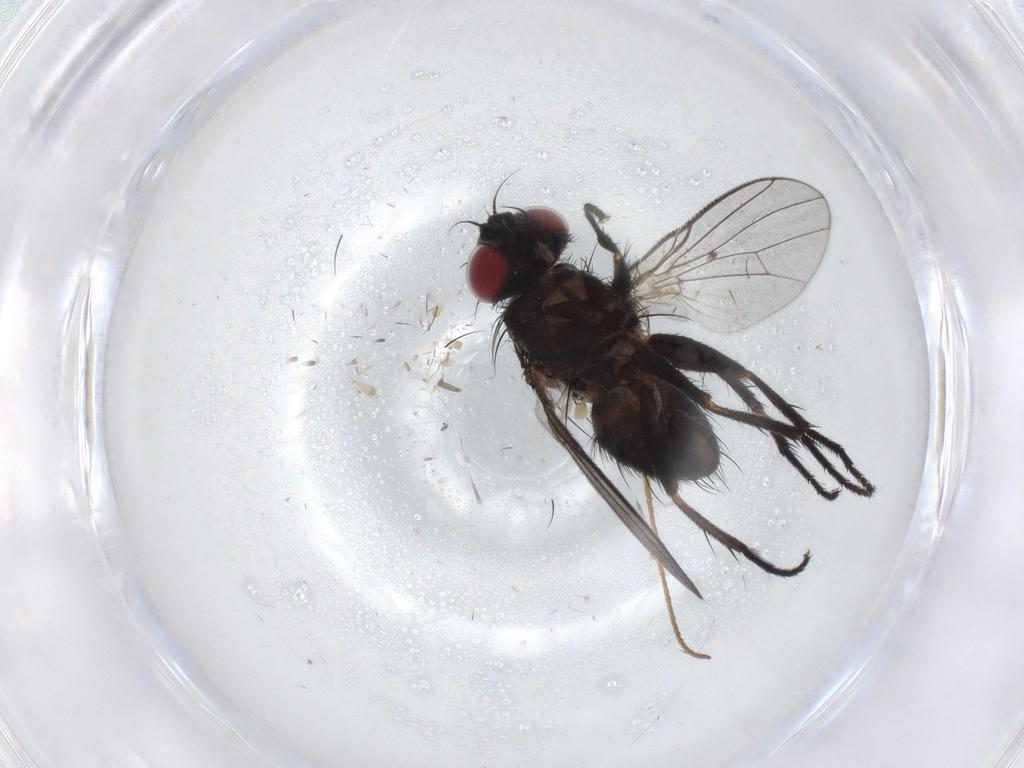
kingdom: Animalia
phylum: Arthropoda
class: Insecta
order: Diptera
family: Muscidae
